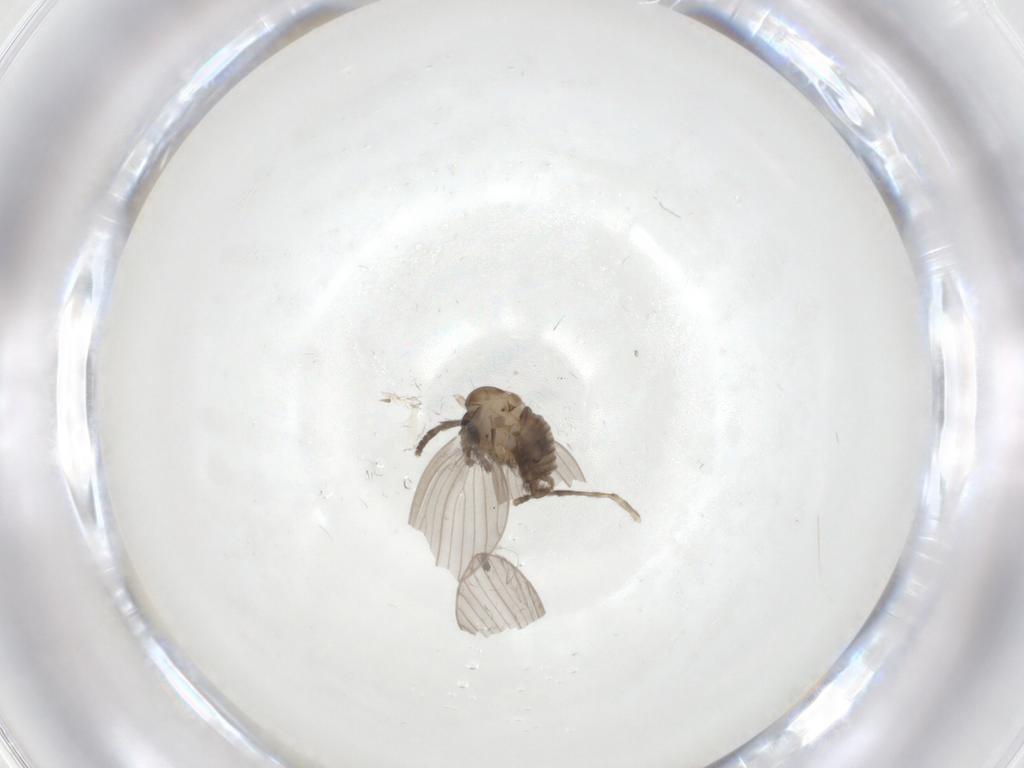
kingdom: Animalia
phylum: Arthropoda
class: Insecta
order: Diptera
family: Psychodidae
